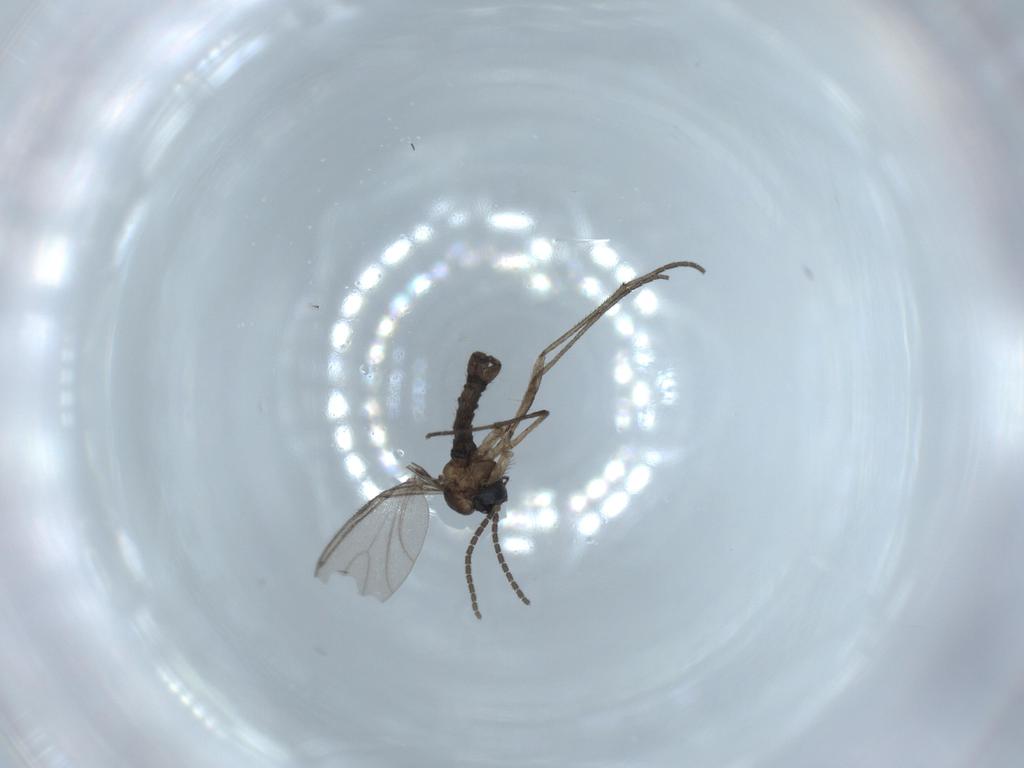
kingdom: Animalia
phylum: Arthropoda
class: Insecta
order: Diptera
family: Sciaridae
